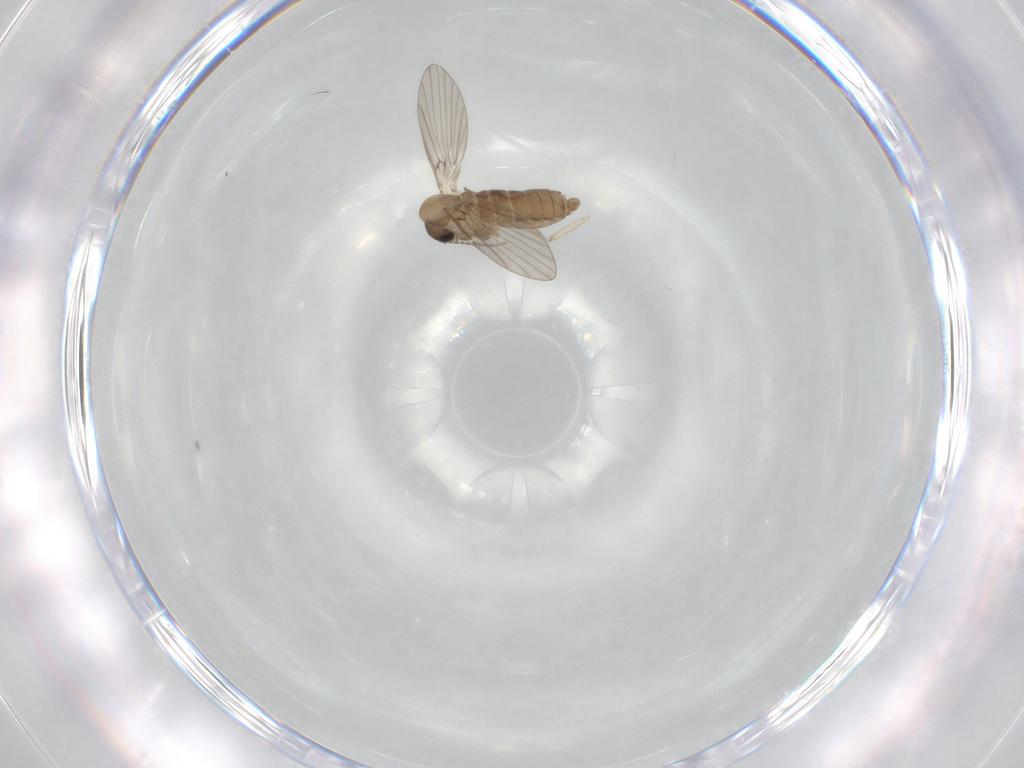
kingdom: Animalia
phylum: Arthropoda
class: Insecta
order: Diptera
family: Psychodidae
